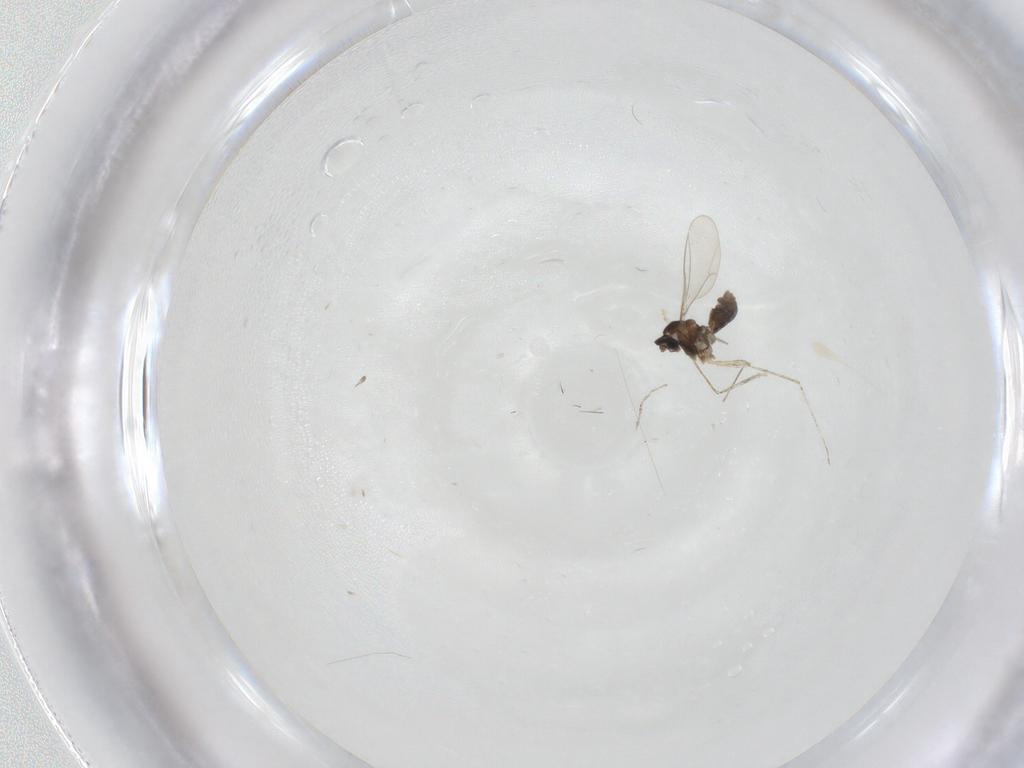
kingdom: Animalia
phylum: Arthropoda
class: Insecta
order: Diptera
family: Cecidomyiidae
